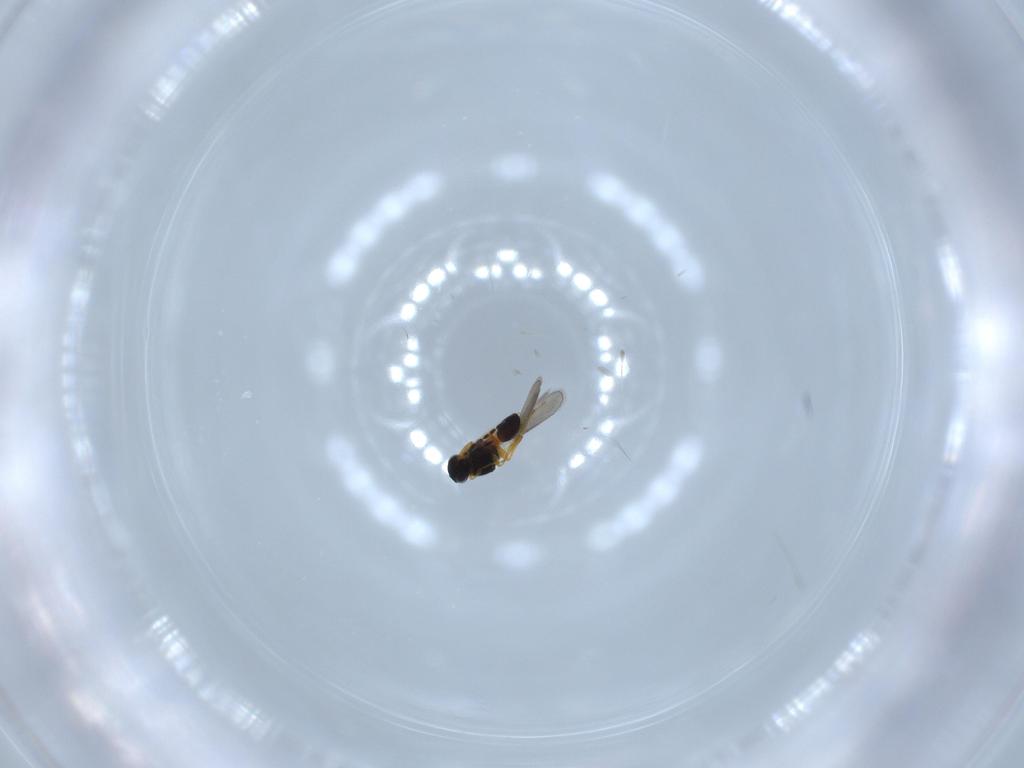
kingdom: Animalia
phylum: Arthropoda
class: Insecta
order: Hymenoptera
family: Platygastridae
